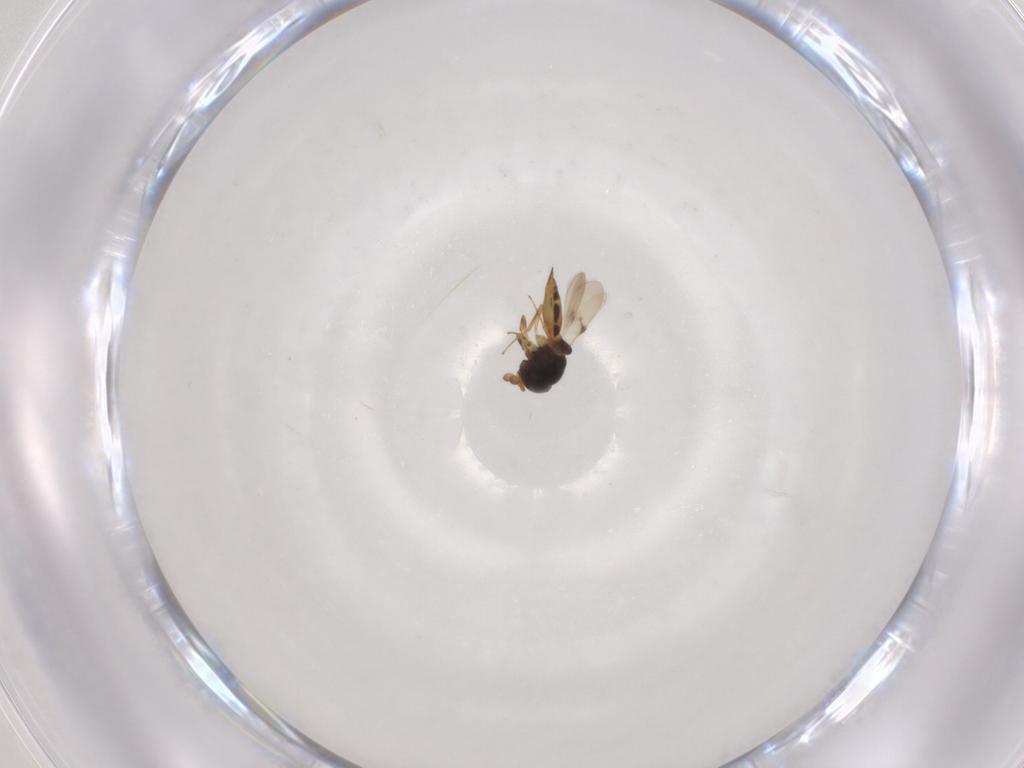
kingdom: Animalia
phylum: Arthropoda
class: Insecta
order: Hymenoptera
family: Scelionidae
